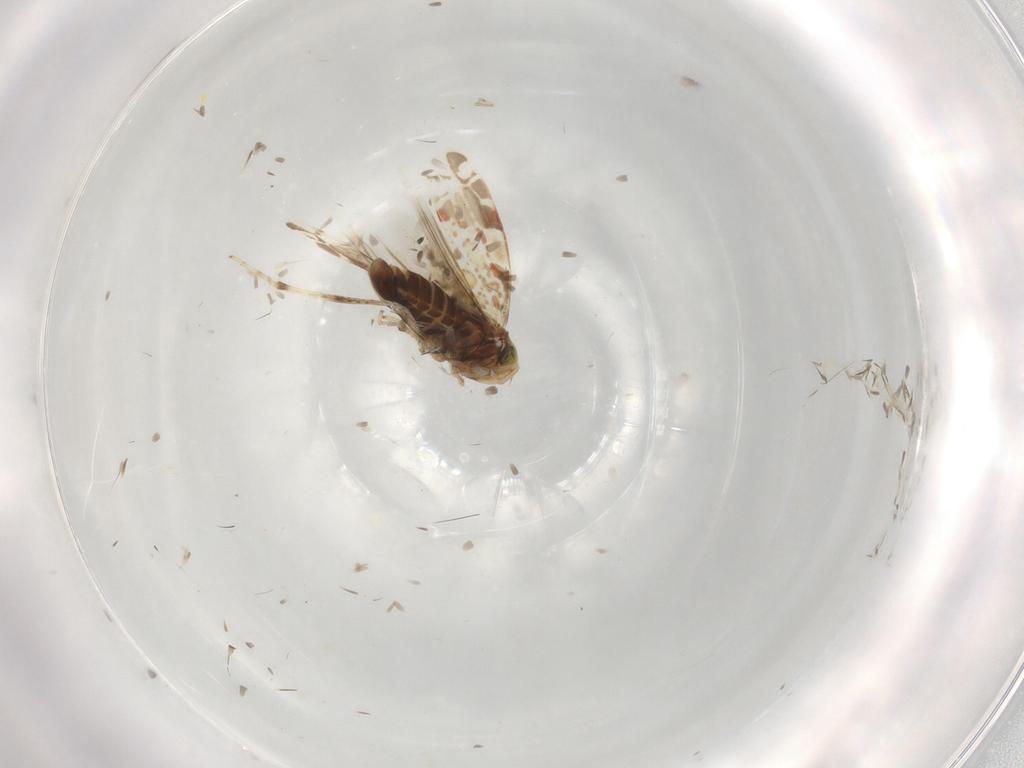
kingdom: Animalia
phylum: Arthropoda
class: Insecta
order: Hemiptera
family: Cicadellidae
